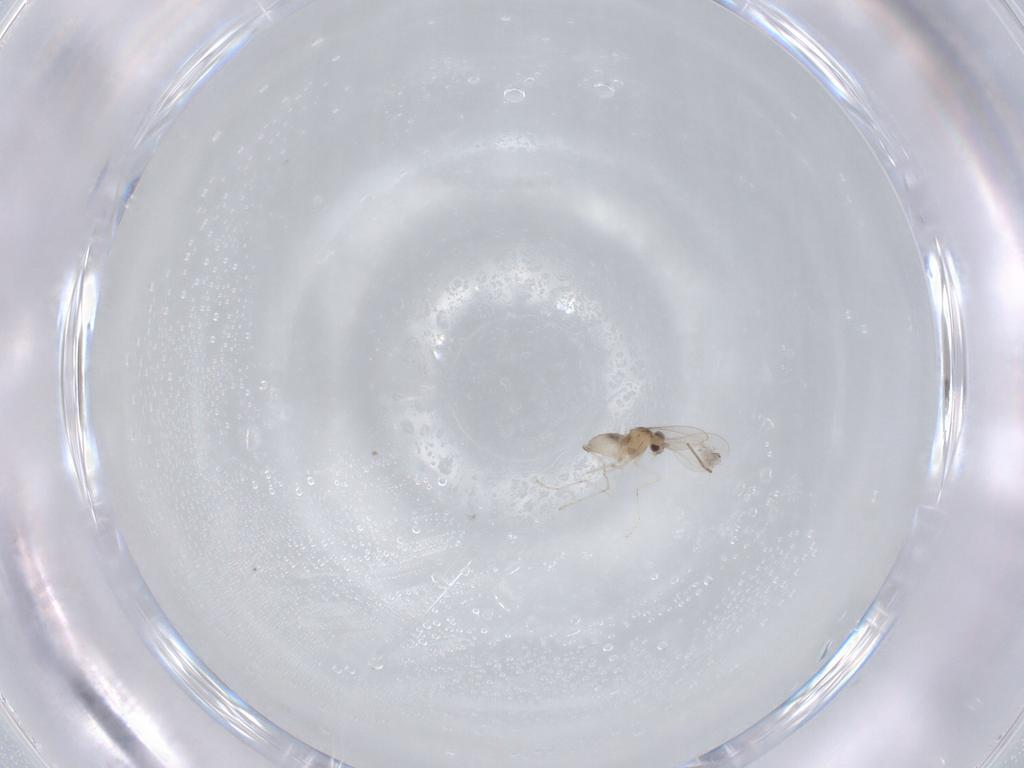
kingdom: Animalia
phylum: Arthropoda
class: Insecta
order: Diptera
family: Cecidomyiidae
